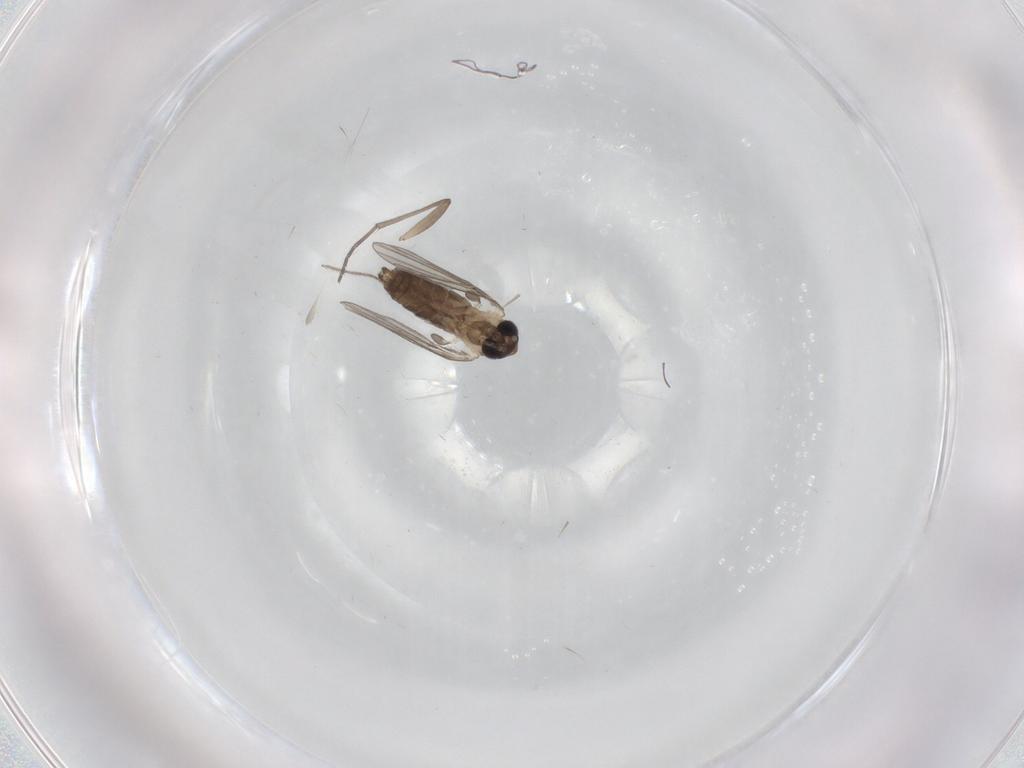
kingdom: Animalia
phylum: Arthropoda
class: Insecta
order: Diptera
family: Psychodidae
